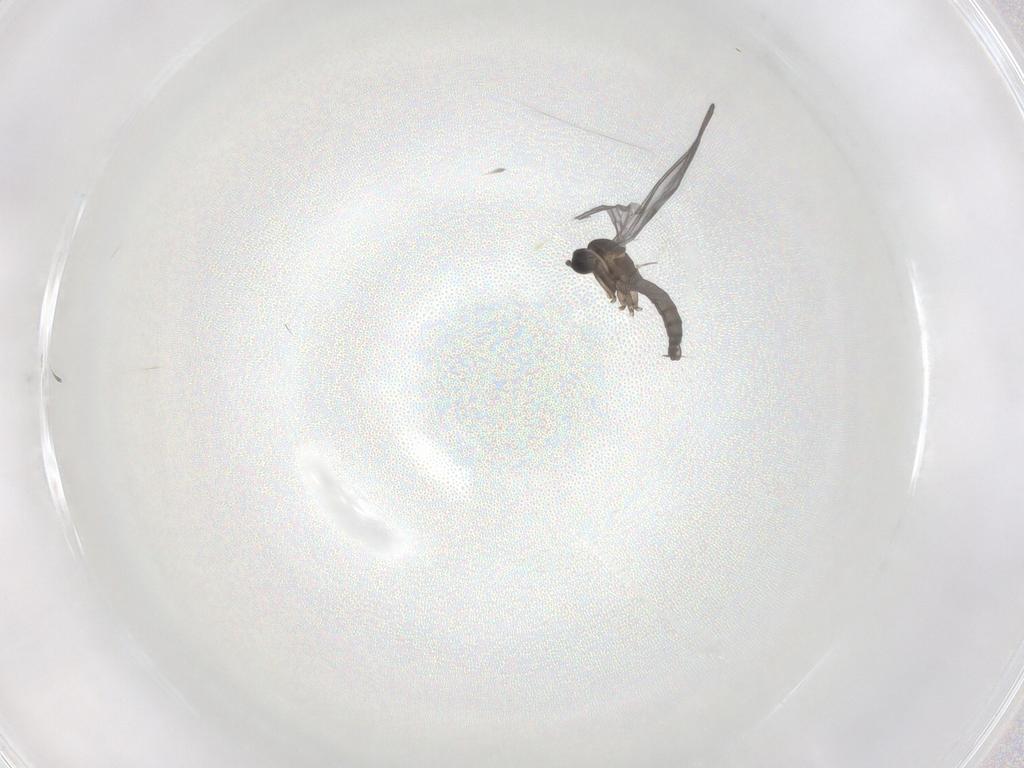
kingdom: Animalia
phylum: Arthropoda
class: Insecta
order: Diptera
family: Sciaridae
